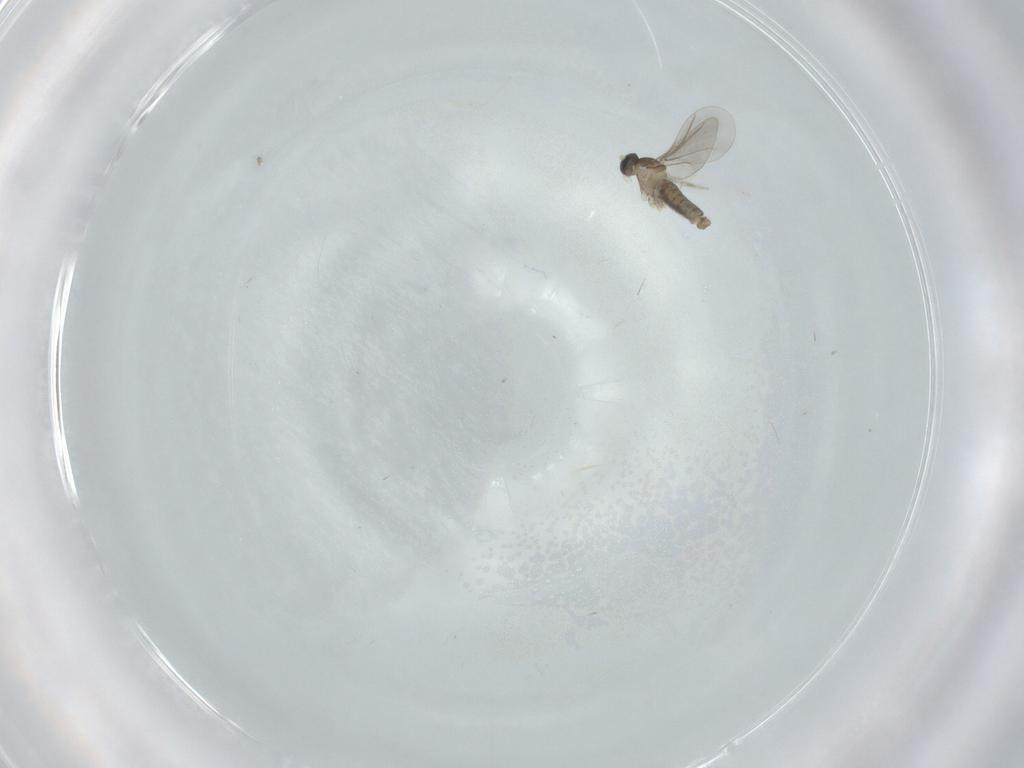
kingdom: Animalia
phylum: Arthropoda
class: Insecta
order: Diptera
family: Cecidomyiidae
